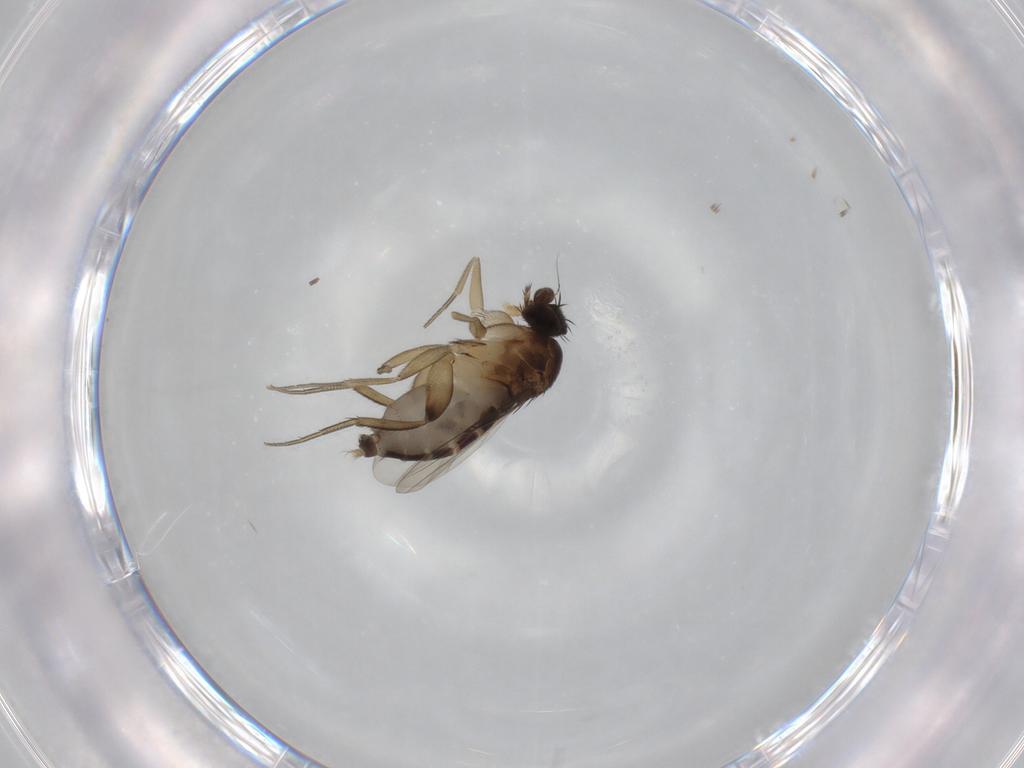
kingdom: Animalia
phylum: Arthropoda
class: Insecta
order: Diptera
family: Phoridae
